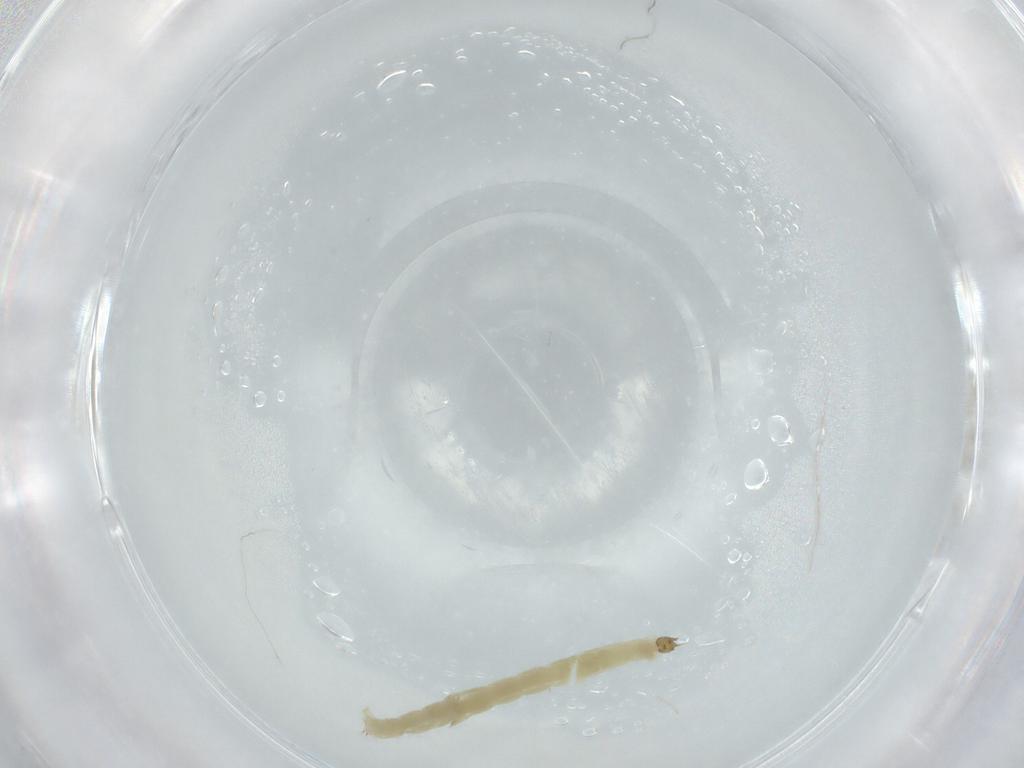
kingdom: Animalia
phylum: Arthropoda
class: Insecta
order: Diptera
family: Chironomidae
